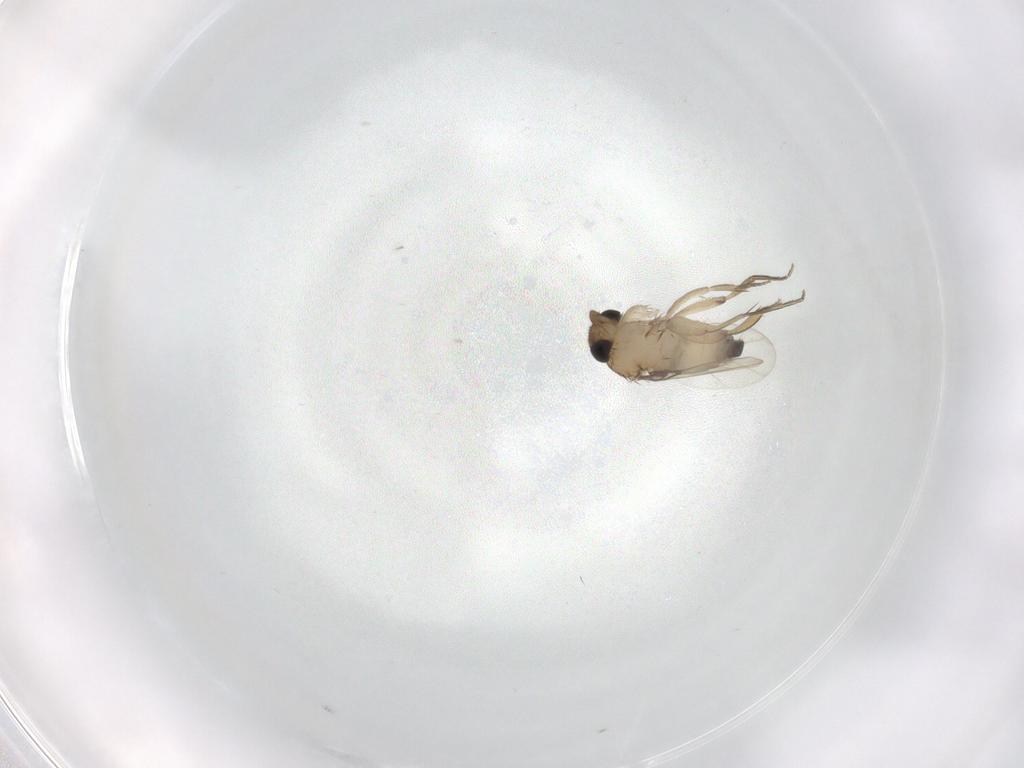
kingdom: Animalia
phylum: Arthropoda
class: Insecta
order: Diptera
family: Phoridae
